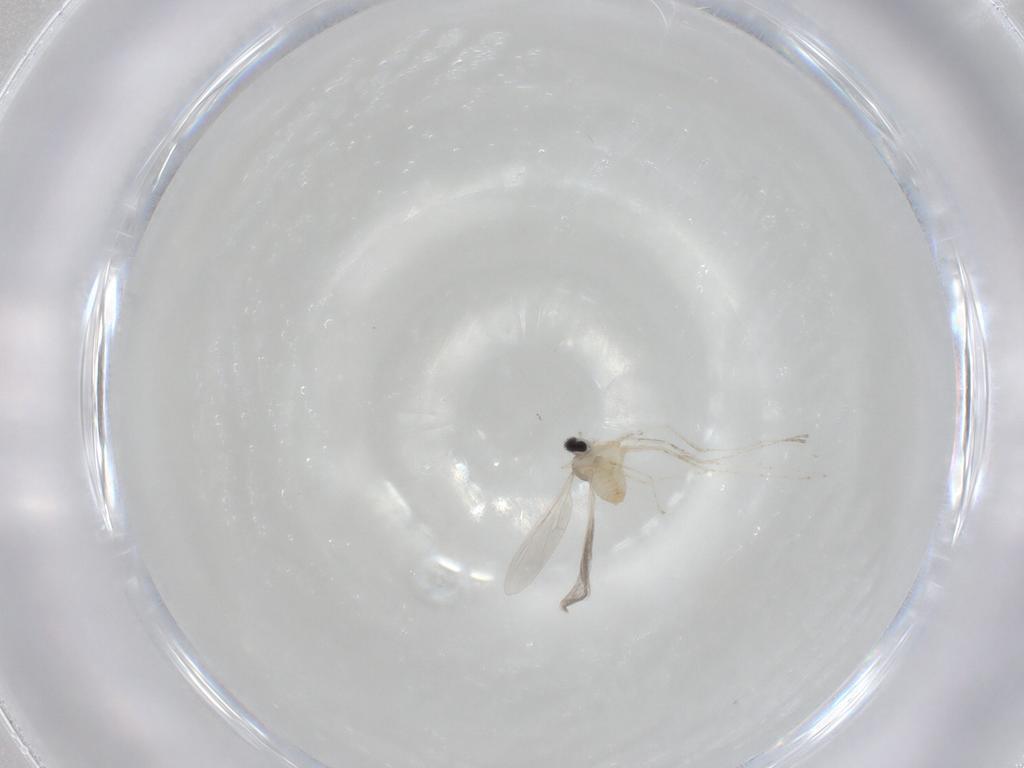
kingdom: Animalia
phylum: Arthropoda
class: Insecta
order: Diptera
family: Cecidomyiidae
